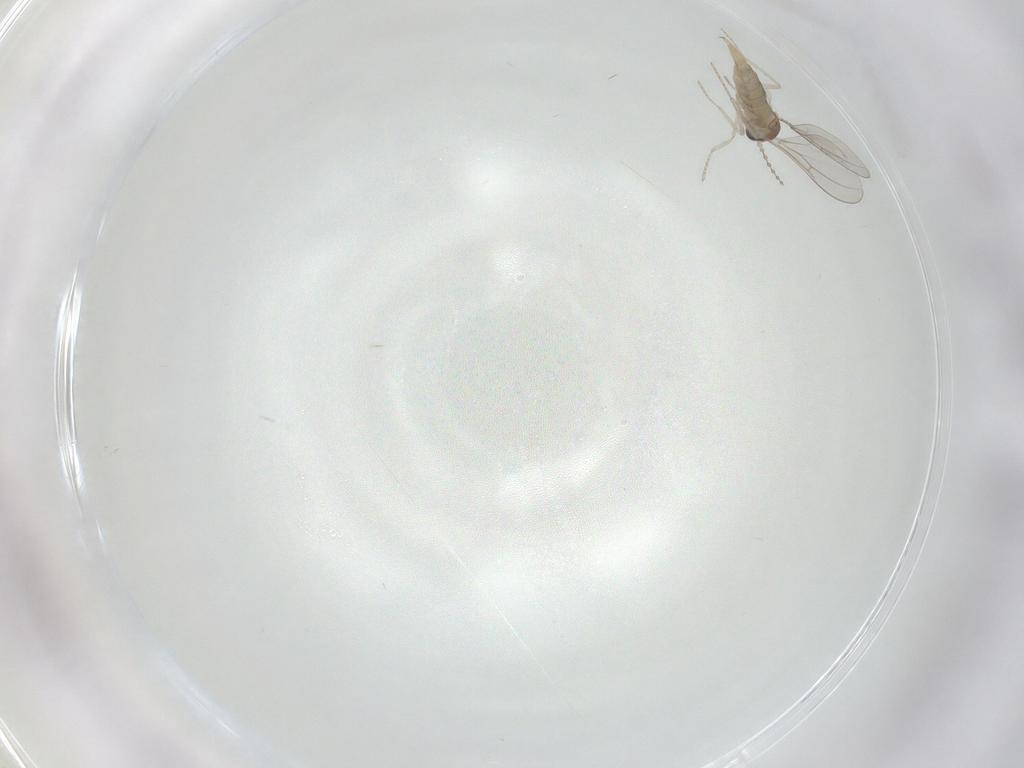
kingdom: Animalia
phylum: Arthropoda
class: Insecta
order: Diptera
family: Cecidomyiidae
